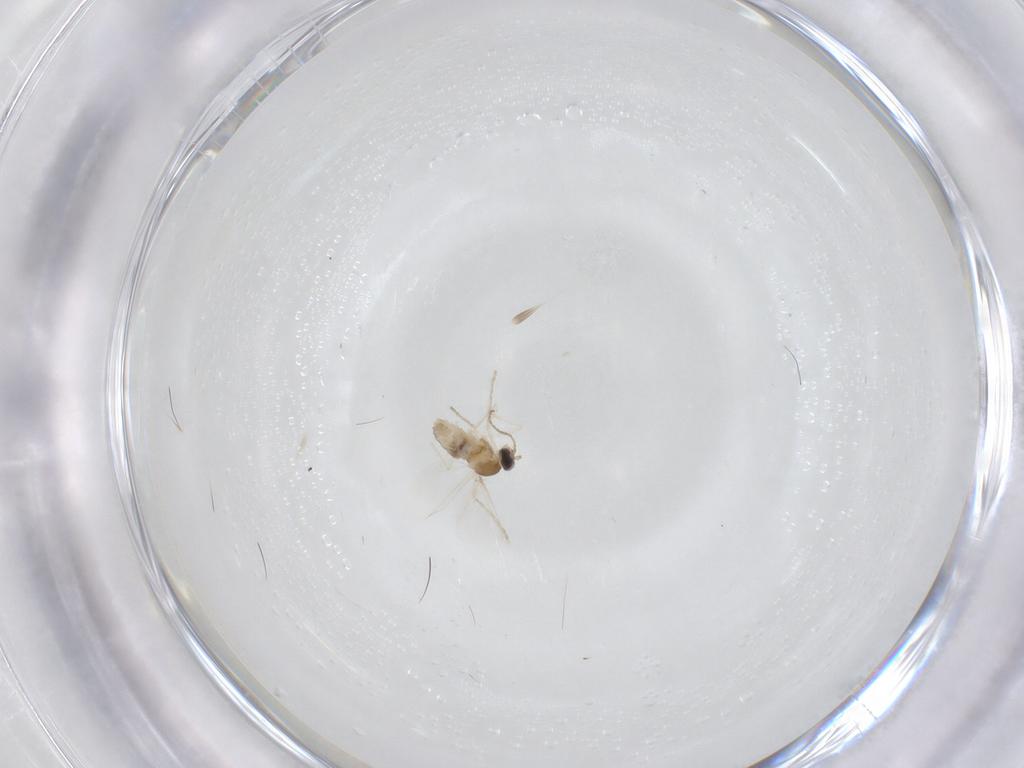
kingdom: Animalia
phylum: Arthropoda
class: Insecta
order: Diptera
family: Cecidomyiidae
